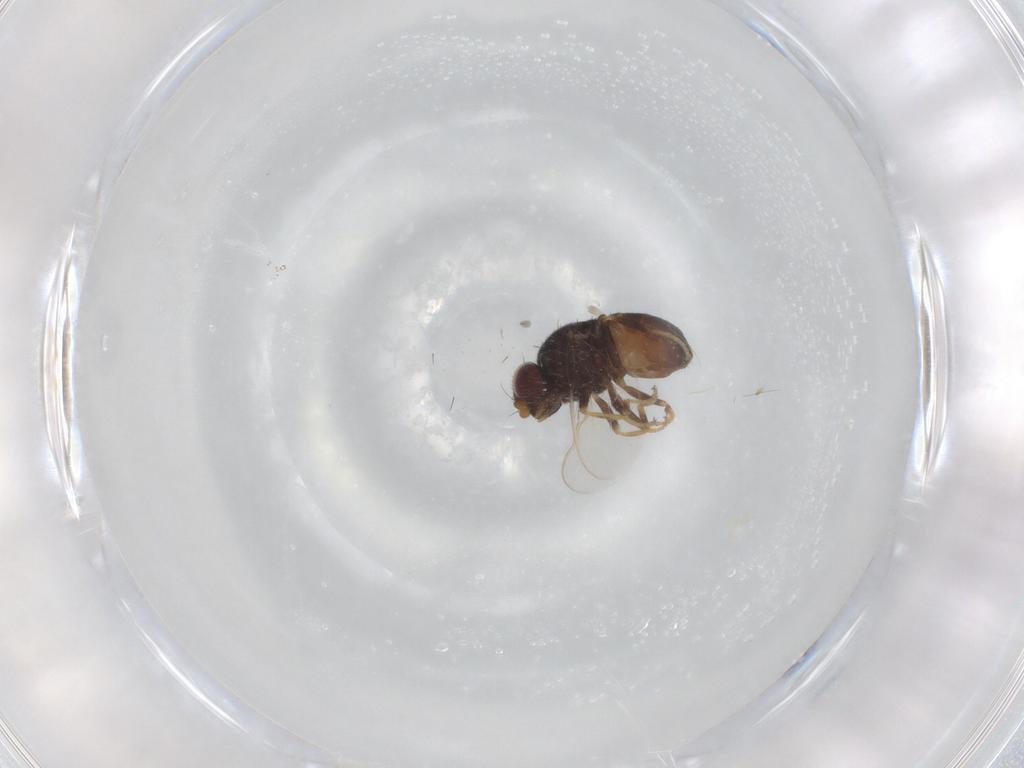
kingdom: Animalia
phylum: Arthropoda
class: Insecta
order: Diptera
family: Chloropidae
